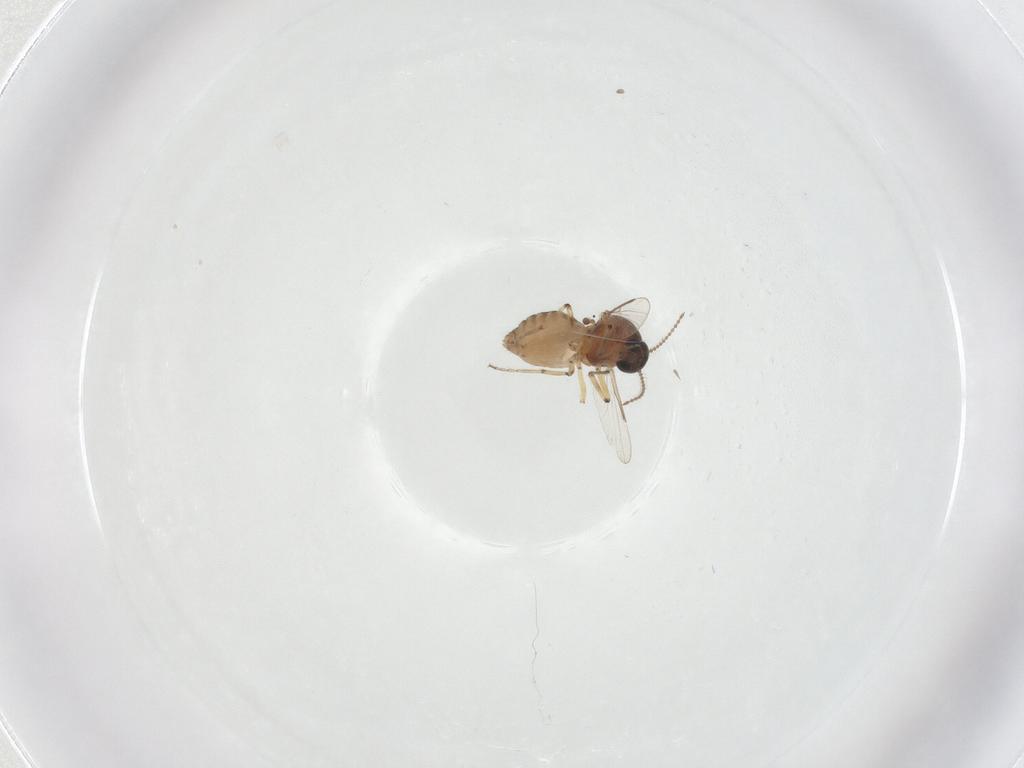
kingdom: Animalia
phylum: Arthropoda
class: Insecta
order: Diptera
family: Ceratopogonidae
